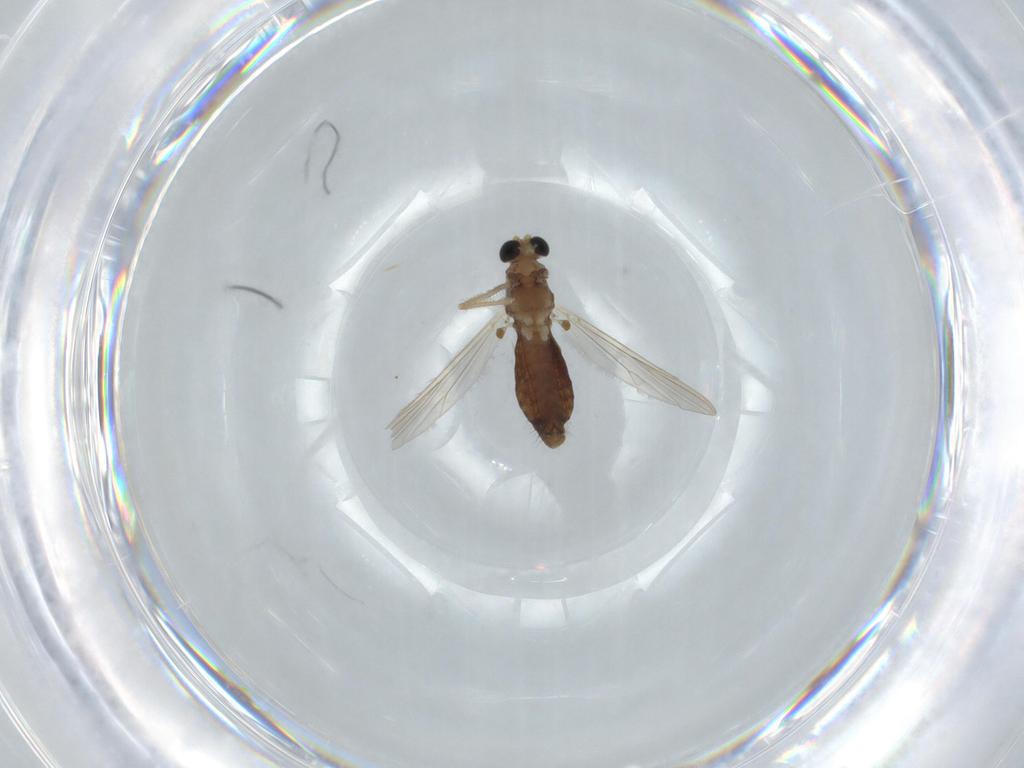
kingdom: Animalia
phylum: Arthropoda
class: Insecta
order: Diptera
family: Chironomidae
